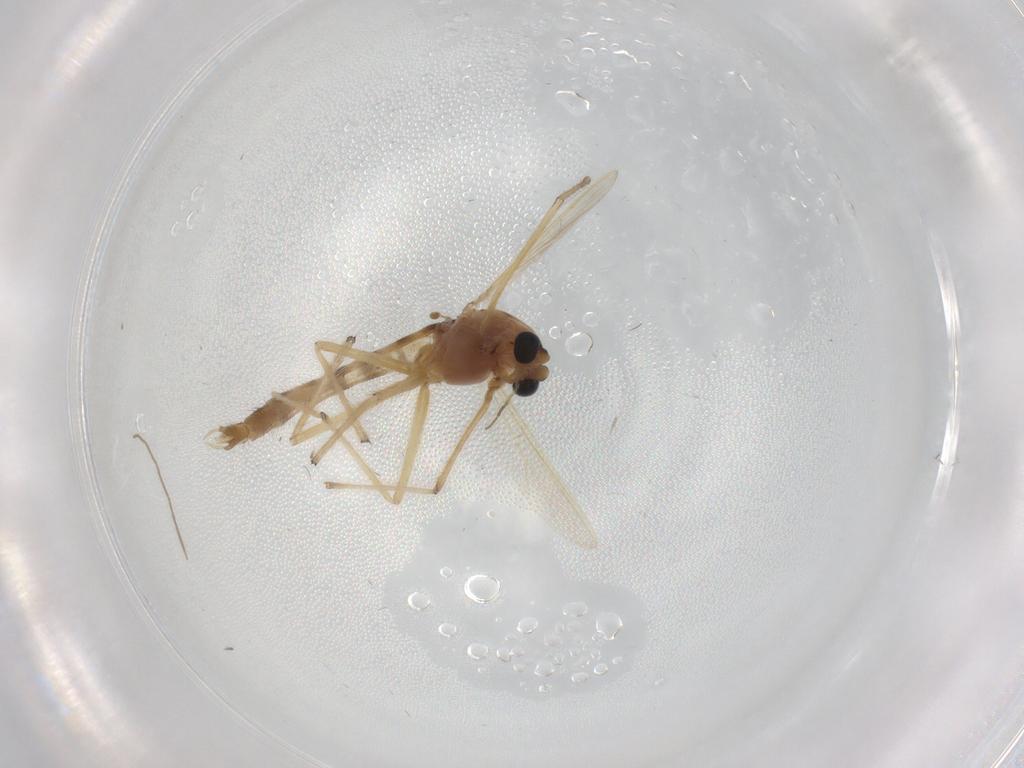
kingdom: Animalia
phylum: Arthropoda
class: Insecta
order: Diptera
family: Chironomidae
